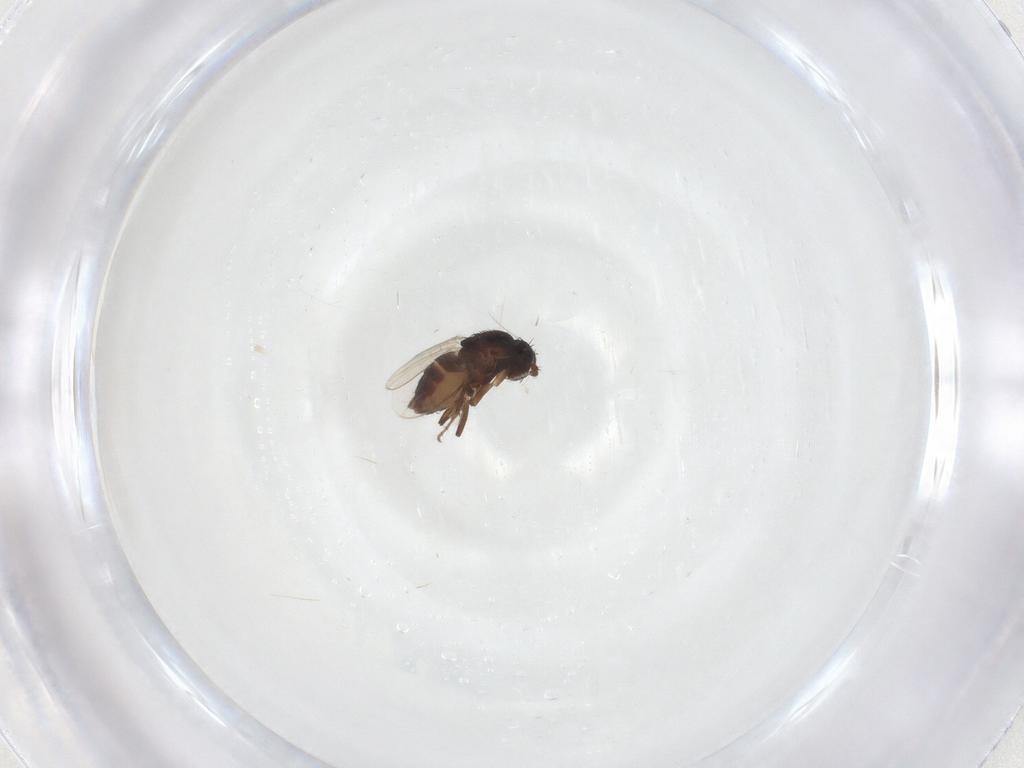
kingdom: Animalia
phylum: Arthropoda
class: Insecta
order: Diptera
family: Sphaeroceridae
